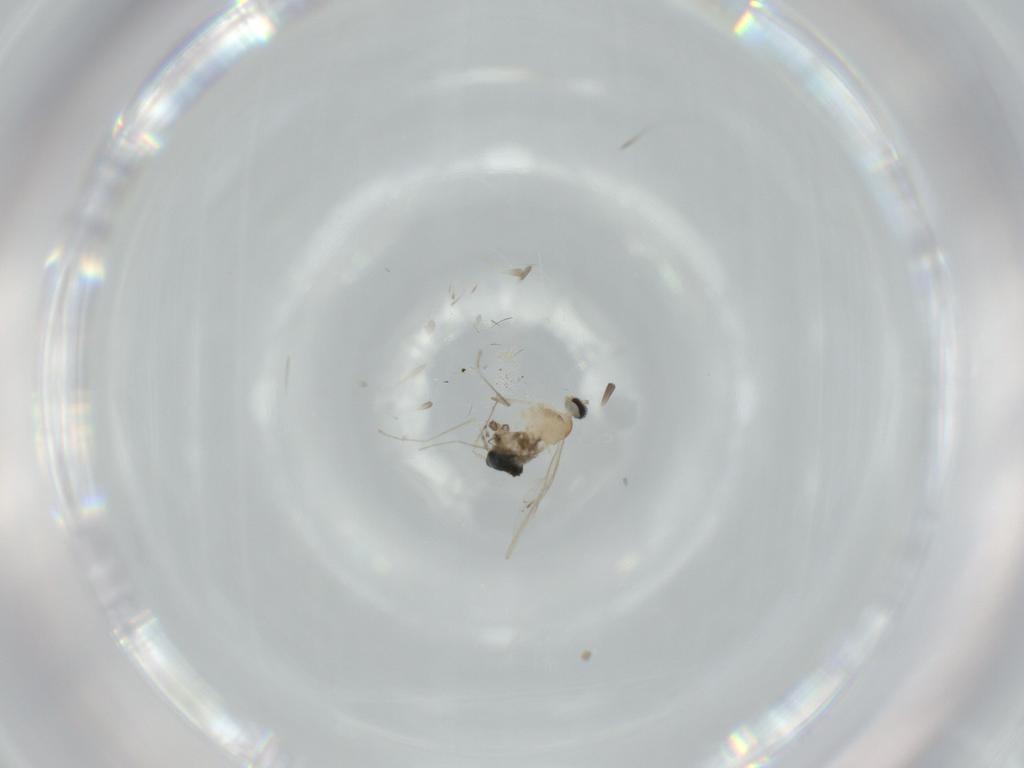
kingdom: Animalia
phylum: Arthropoda
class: Insecta
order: Diptera
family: Cecidomyiidae
